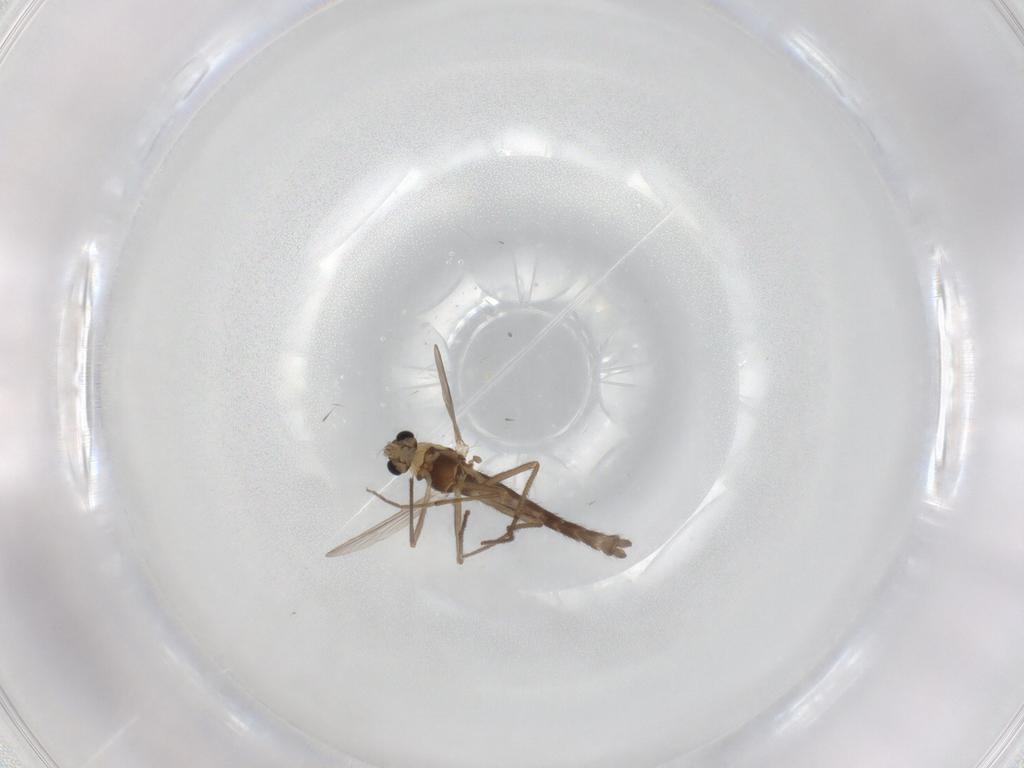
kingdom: Animalia
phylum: Arthropoda
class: Insecta
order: Diptera
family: Chironomidae
